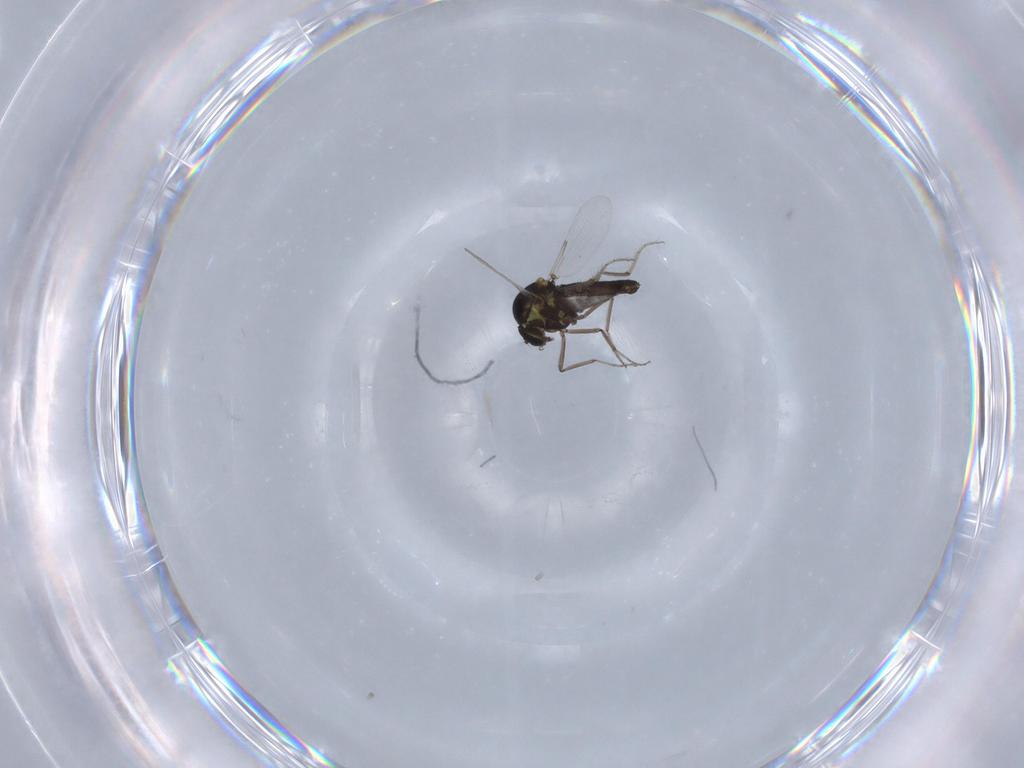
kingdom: Animalia
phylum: Arthropoda
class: Insecta
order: Diptera
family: Ceratopogonidae
